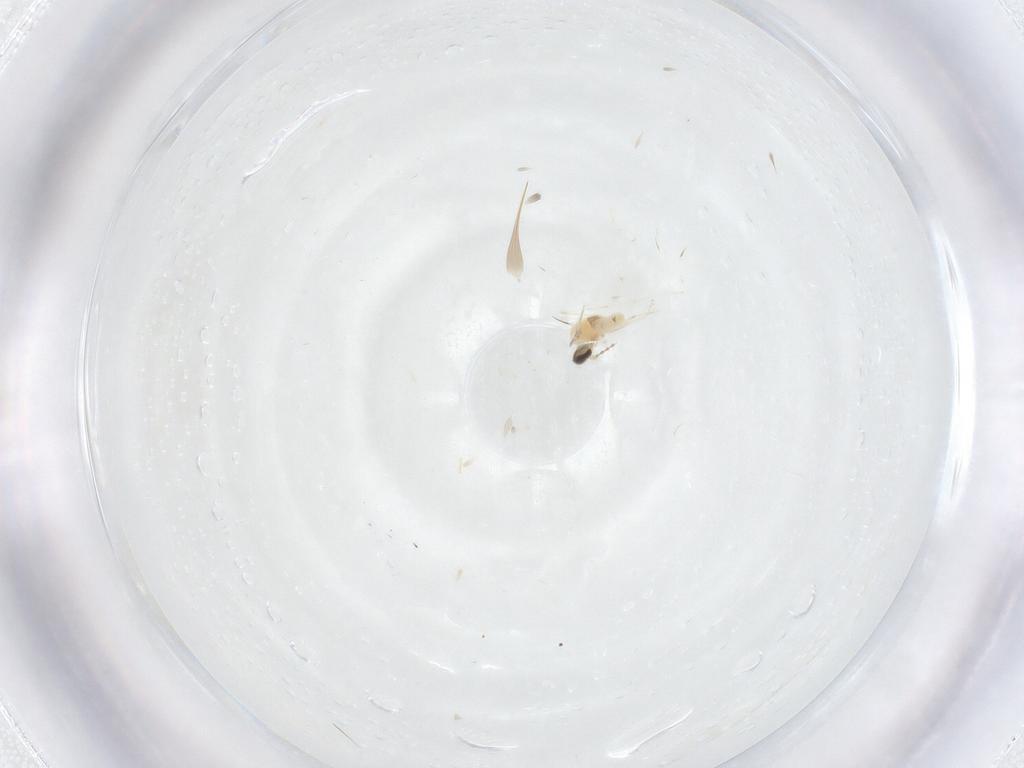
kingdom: Animalia
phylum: Arthropoda
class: Insecta
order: Diptera
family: Cecidomyiidae
